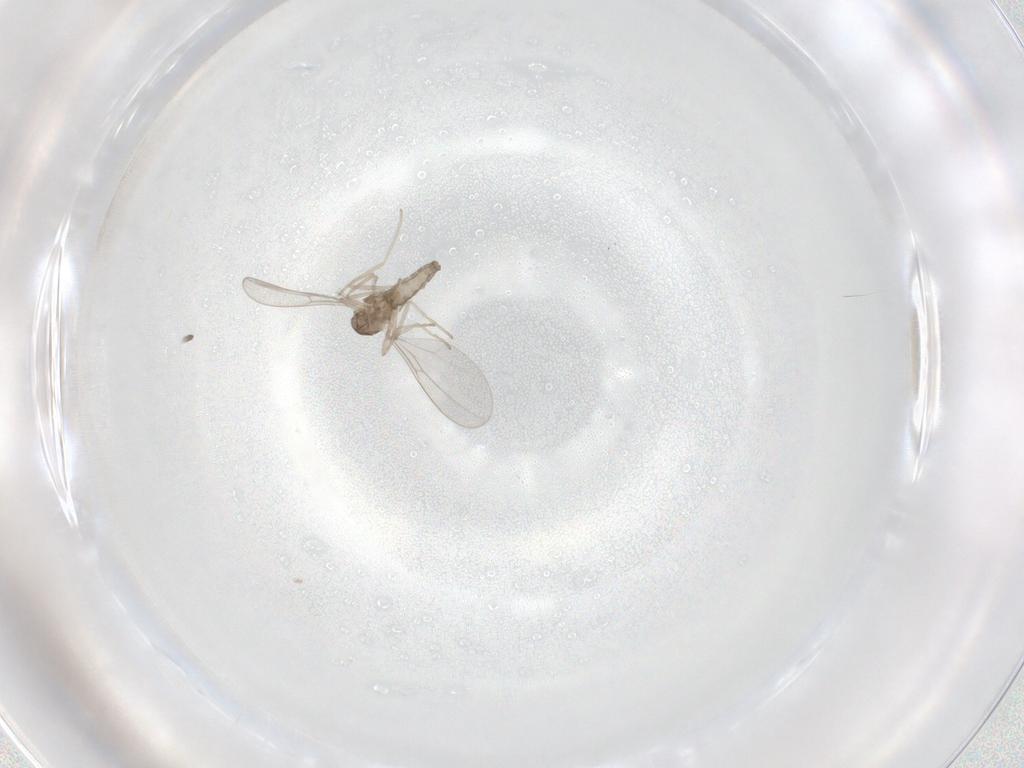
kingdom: Animalia
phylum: Arthropoda
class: Insecta
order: Diptera
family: Cecidomyiidae
